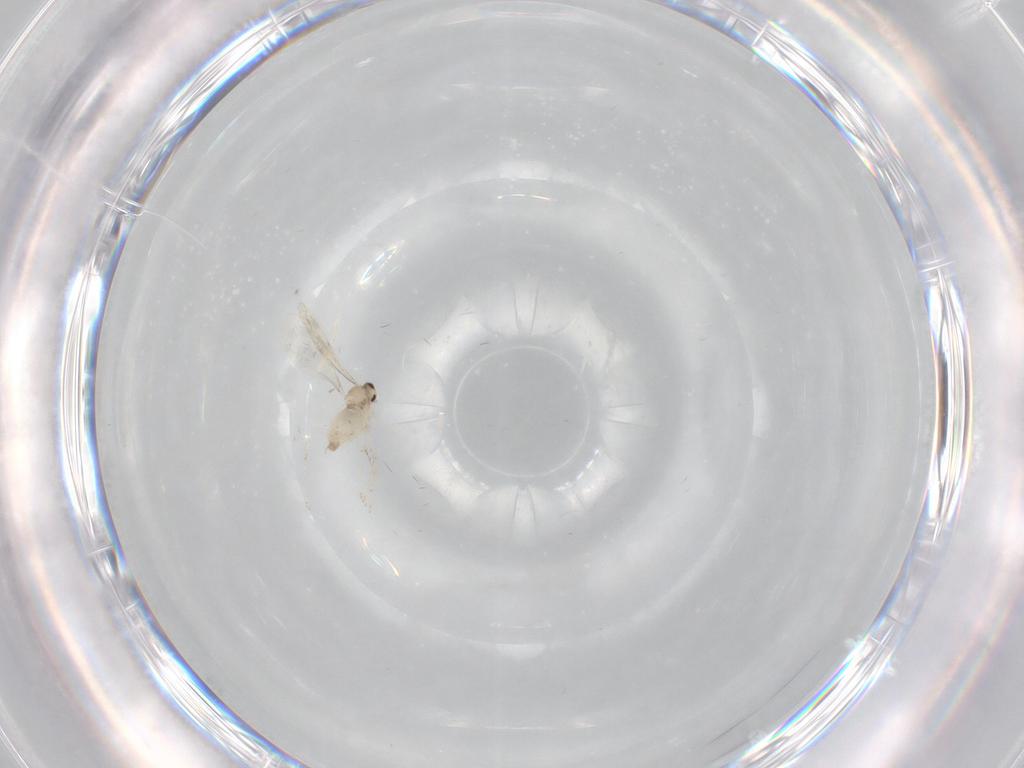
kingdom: Animalia
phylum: Arthropoda
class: Insecta
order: Diptera
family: Cecidomyiidae
